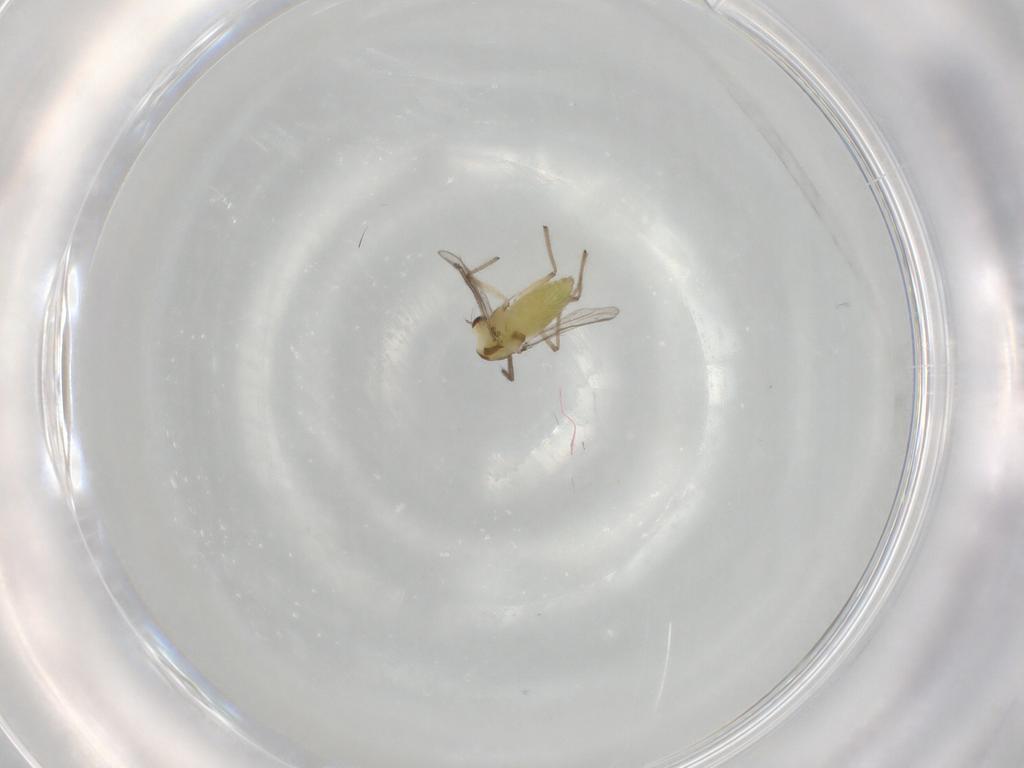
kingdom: Animalia
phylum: Arthropoda
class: Insecta
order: Diptera
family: Chironomidae
